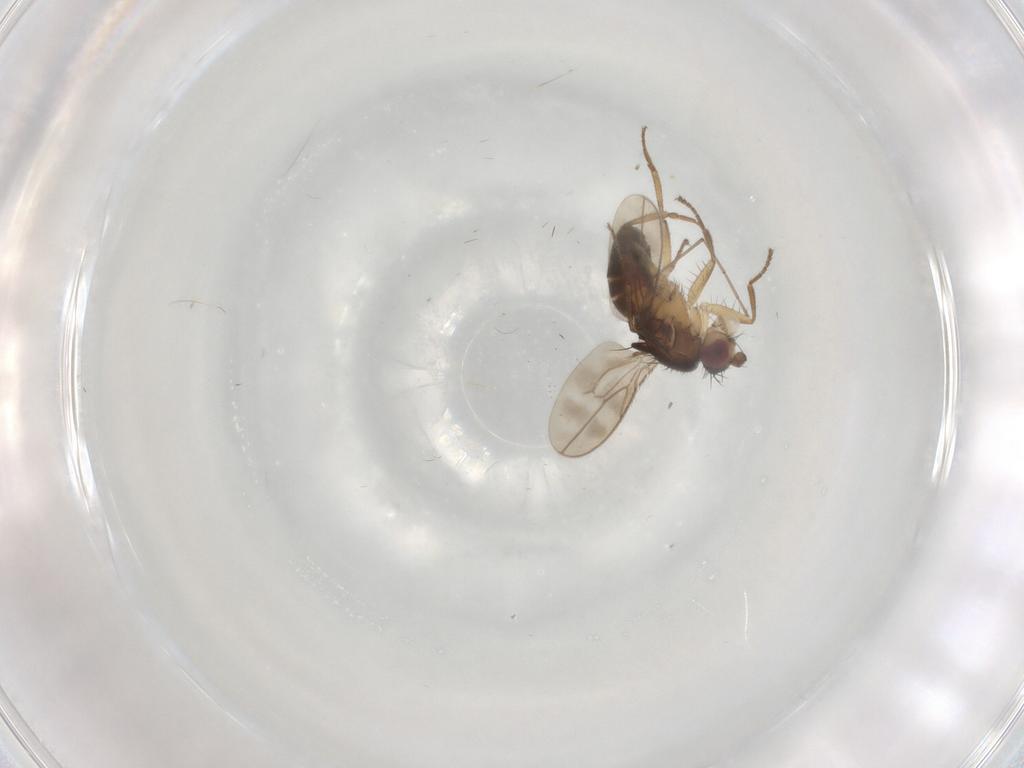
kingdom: Animalia
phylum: Arthropoda
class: Insecta
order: Diptera
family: Sphaeroceridae
